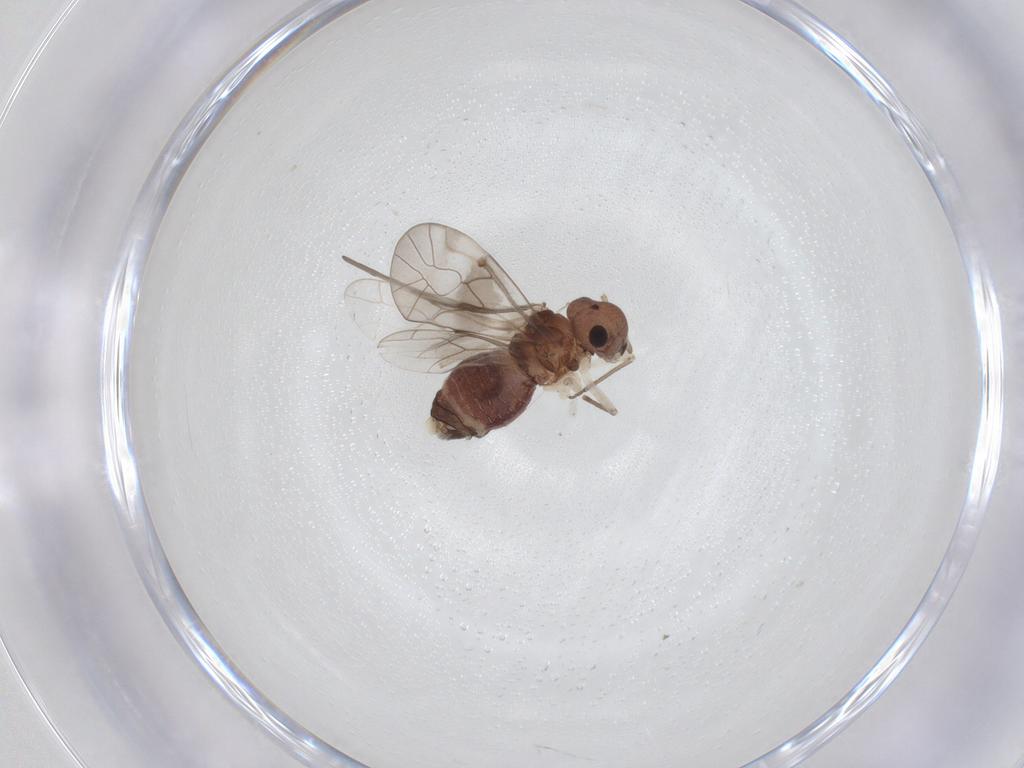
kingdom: Animalia
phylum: Arthropoda
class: Insecta
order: Psocodea
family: Peripsocidae
